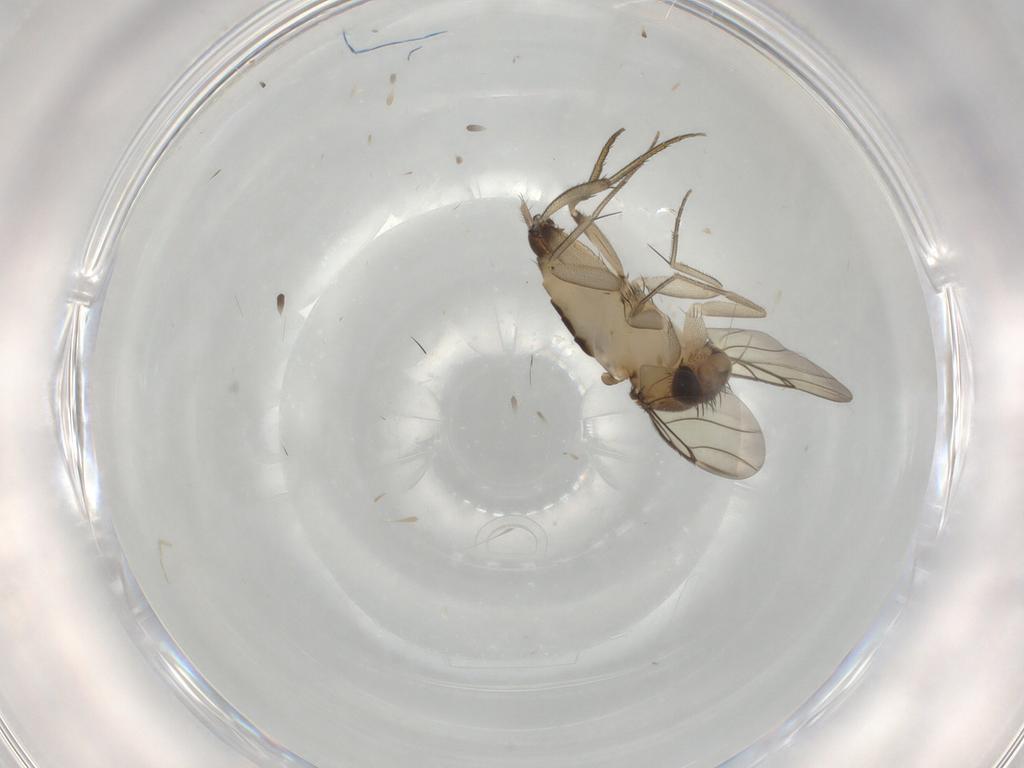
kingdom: Animalia
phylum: Arthropoda
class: Insecta
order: Diptera
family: Phoridae
